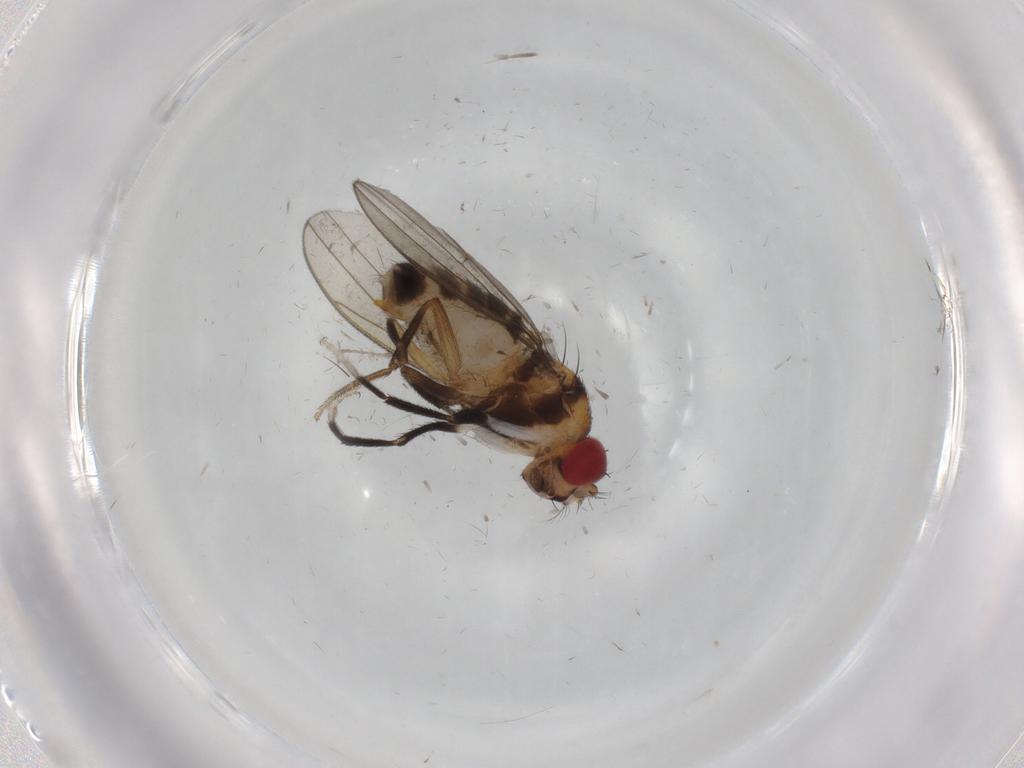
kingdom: Animalia
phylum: Arthropoda
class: Insecta
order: Diptera
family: Drosophilidae
